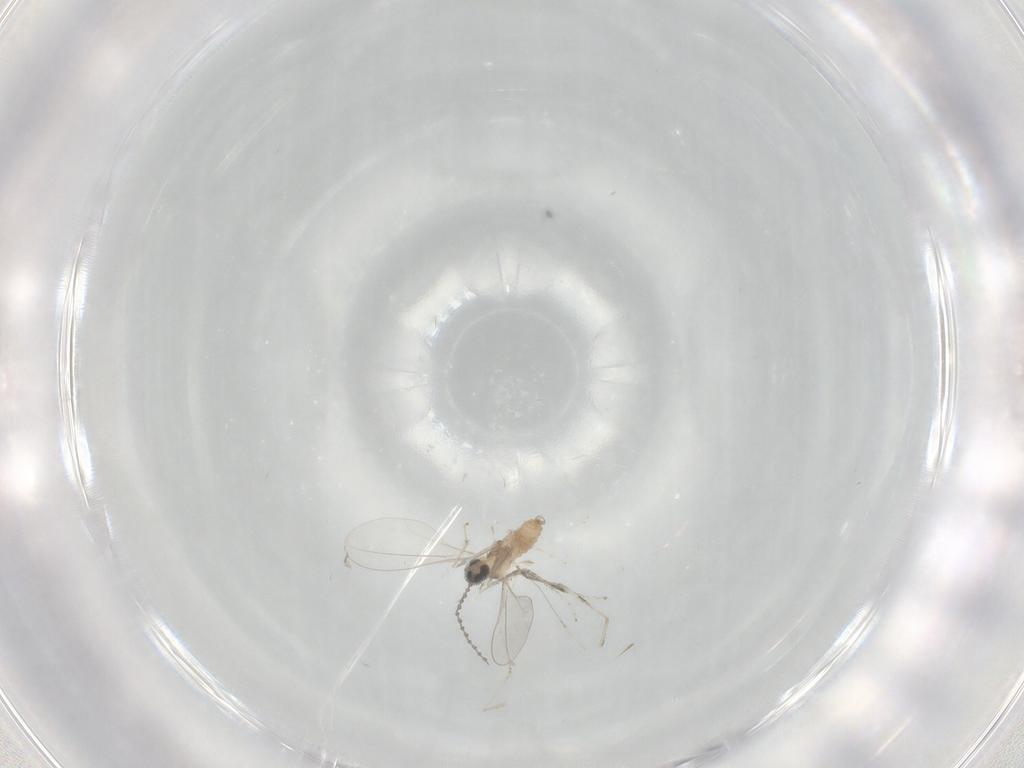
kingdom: Animalia
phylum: Arthropoda
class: Insecta
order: Diptera
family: Cecidomyiidae
